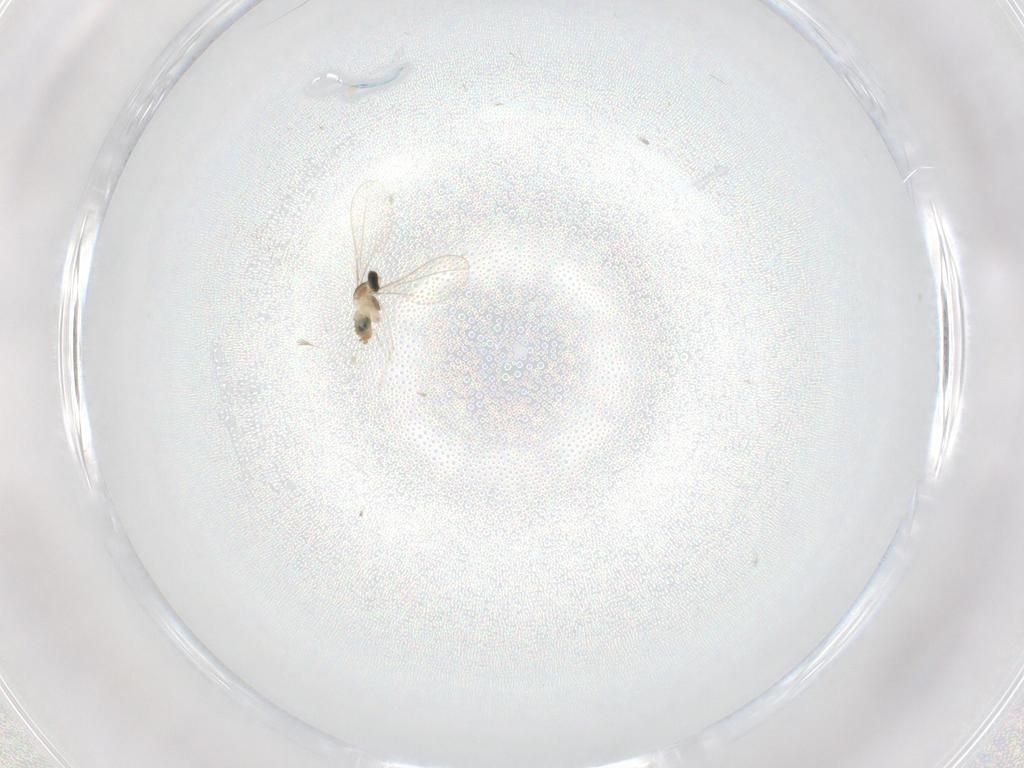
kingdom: Animalia
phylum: Arthropoda
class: Insecta
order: Diptera
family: Cecidomyiidae
